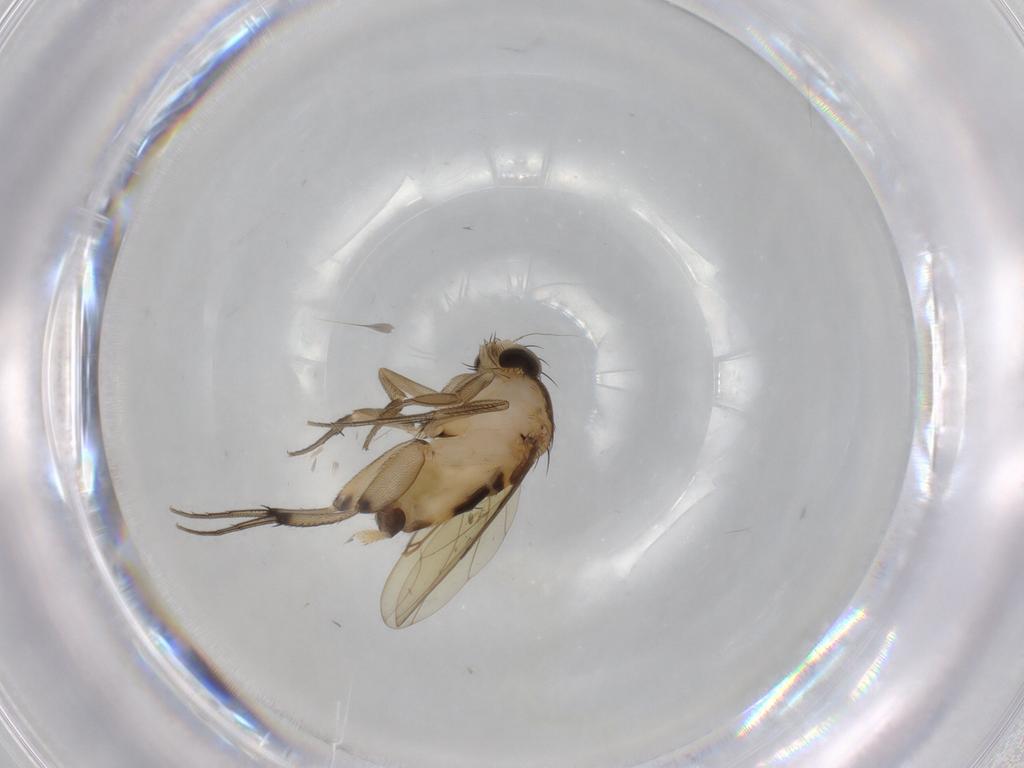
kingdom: Animalia
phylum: Arthropoda
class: Insecta
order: Diptera
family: Phoridae
